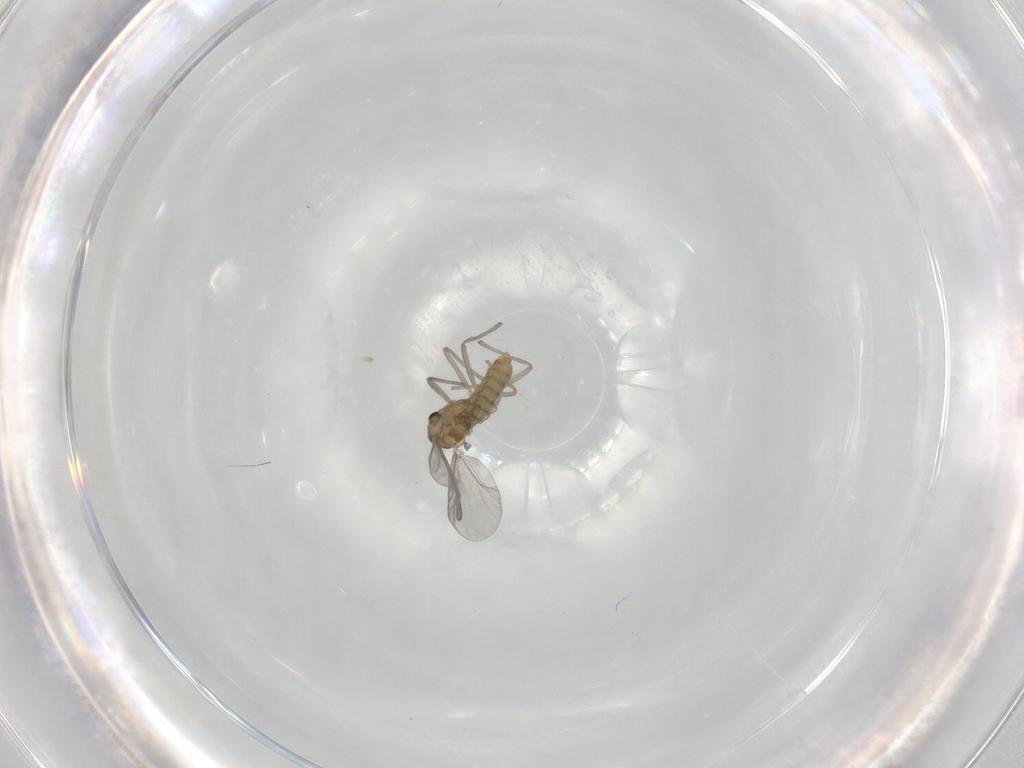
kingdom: Animalia
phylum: Arthropoda
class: Insecta
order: Diptera
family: Chironomidae
